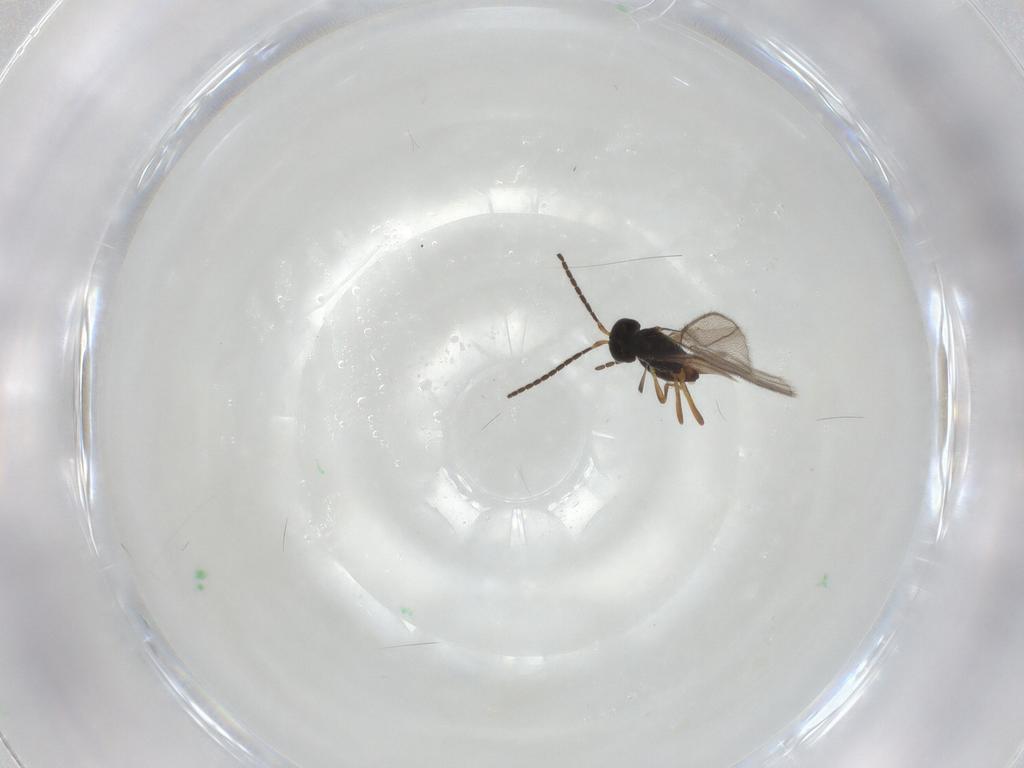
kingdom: Animalia
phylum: Arthropoda
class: Insecta
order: Hymenoptera
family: Braconidae
